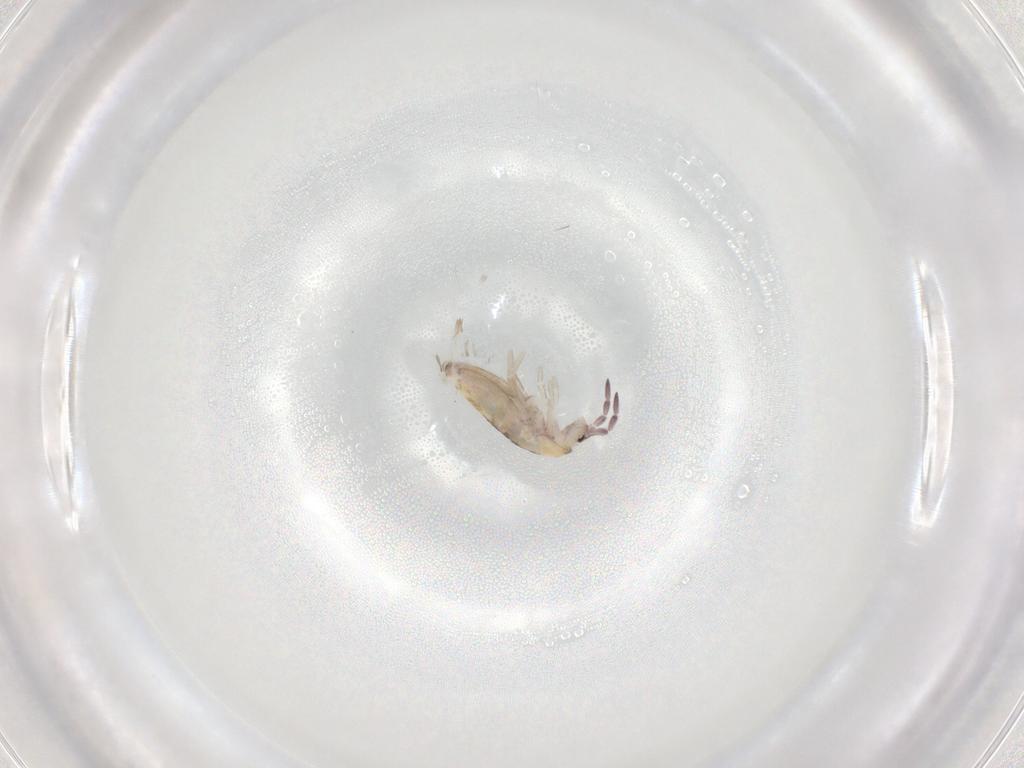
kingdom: Animalia
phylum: Arthropoda
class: Collembola
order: Entomobryomorpha
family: Entomobryidae
